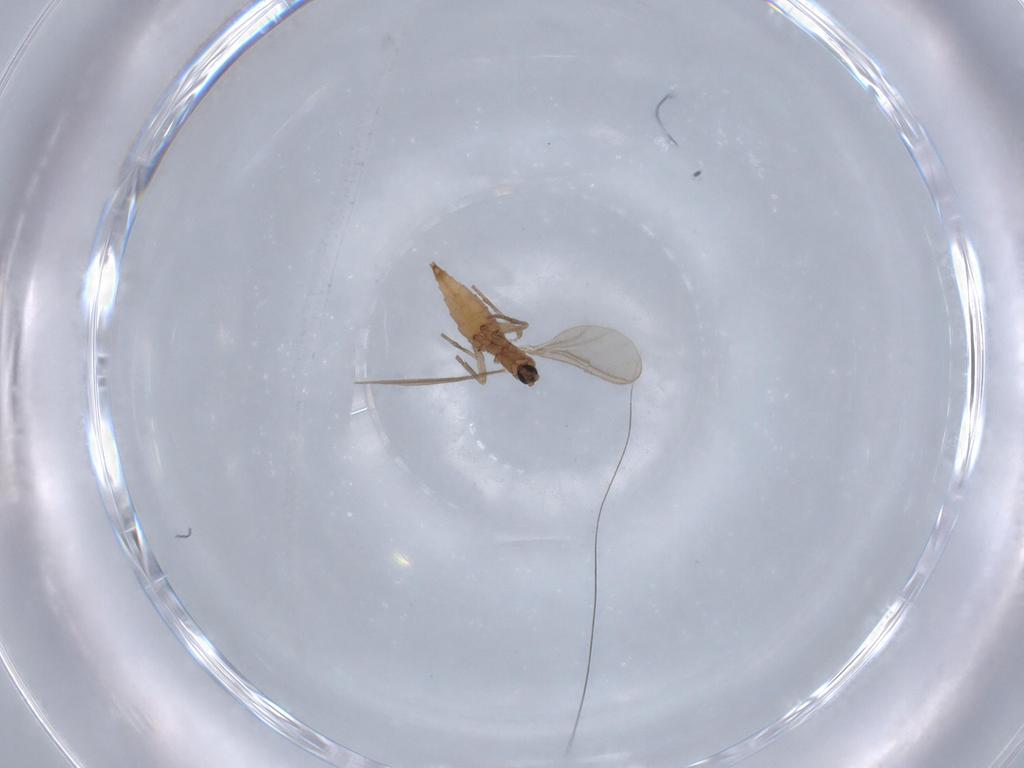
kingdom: Animalia
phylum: Arthropoda
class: Insecta
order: Diptera
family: Sciaridae
